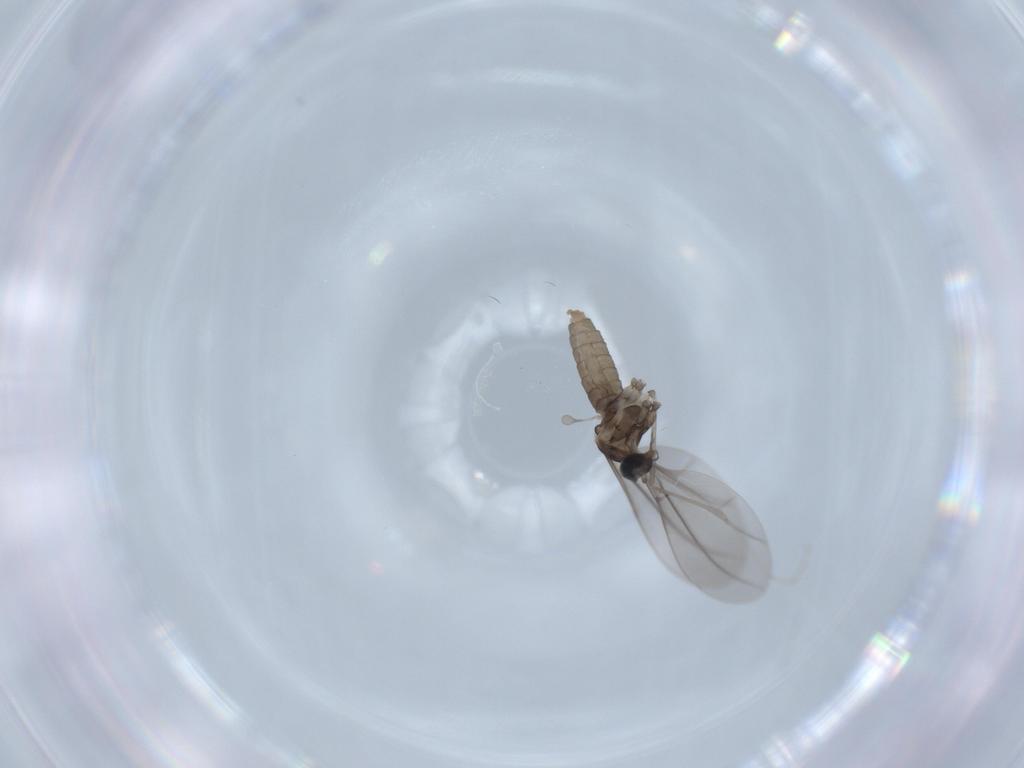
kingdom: Animalia
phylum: Arthropoda
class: Insecta
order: Diptera
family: Cecidomyiidae
